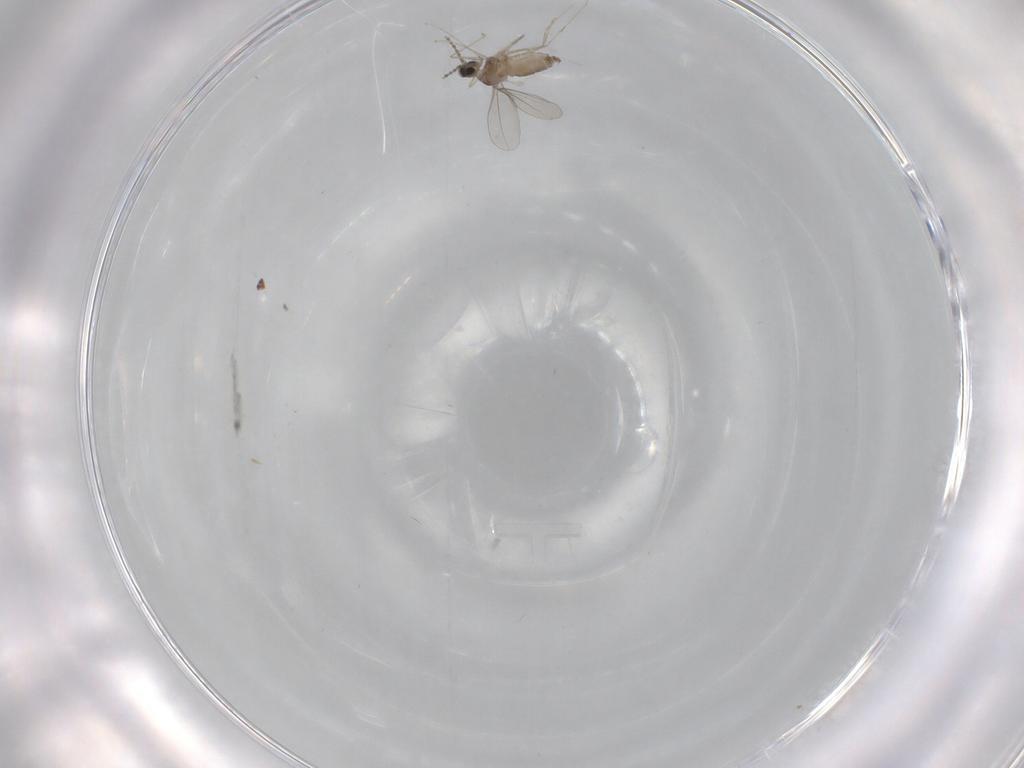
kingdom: Animalia
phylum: Arthropoda
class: Insecta
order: Diptera
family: Cecidomyiidae
